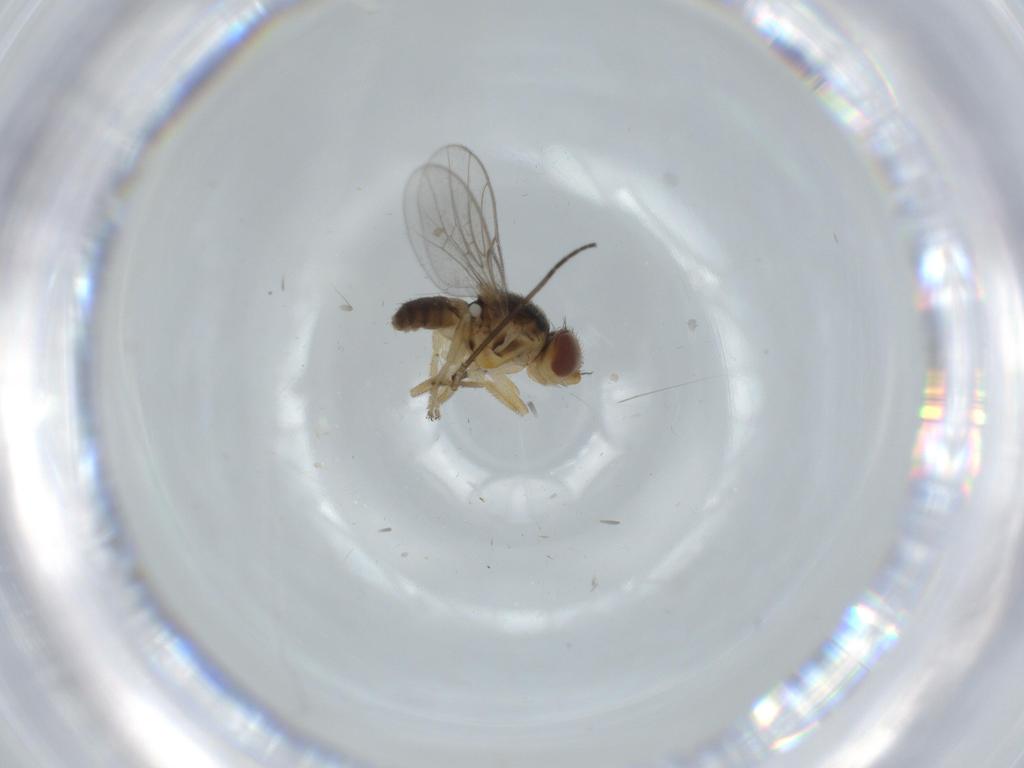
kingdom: Animalia
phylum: Arthropoda
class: Insecta
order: Diptera
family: Chloropidae
